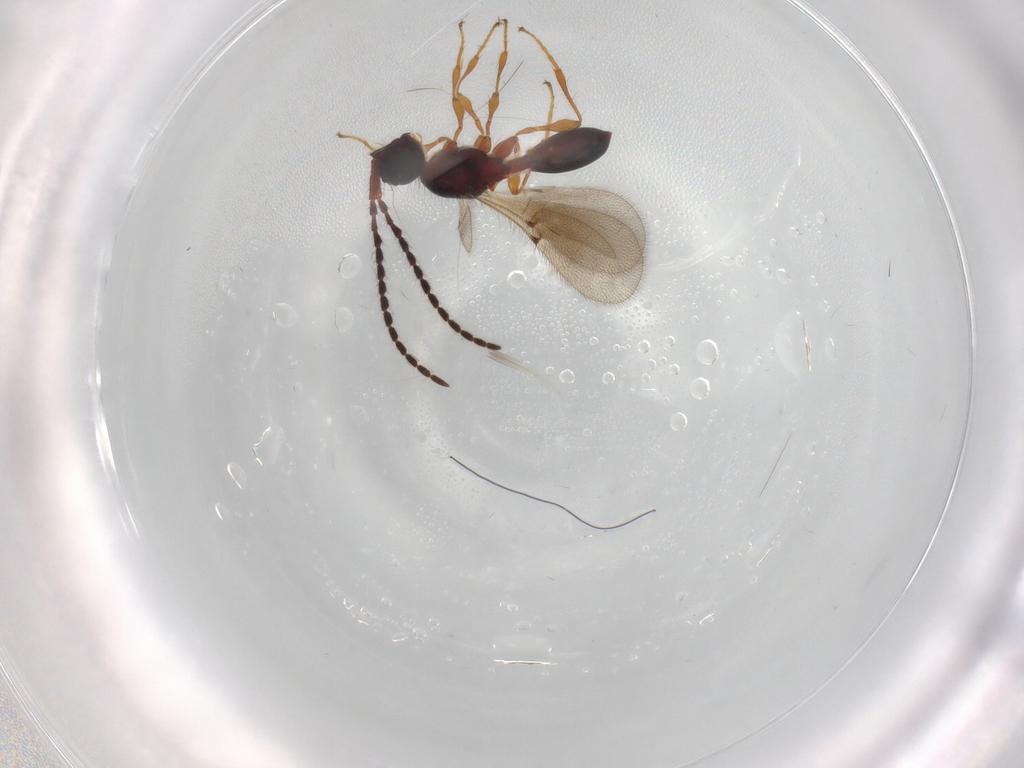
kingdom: Animalia
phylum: Arthropoda
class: Insecta
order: Hymenoptera
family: Diapriidae
